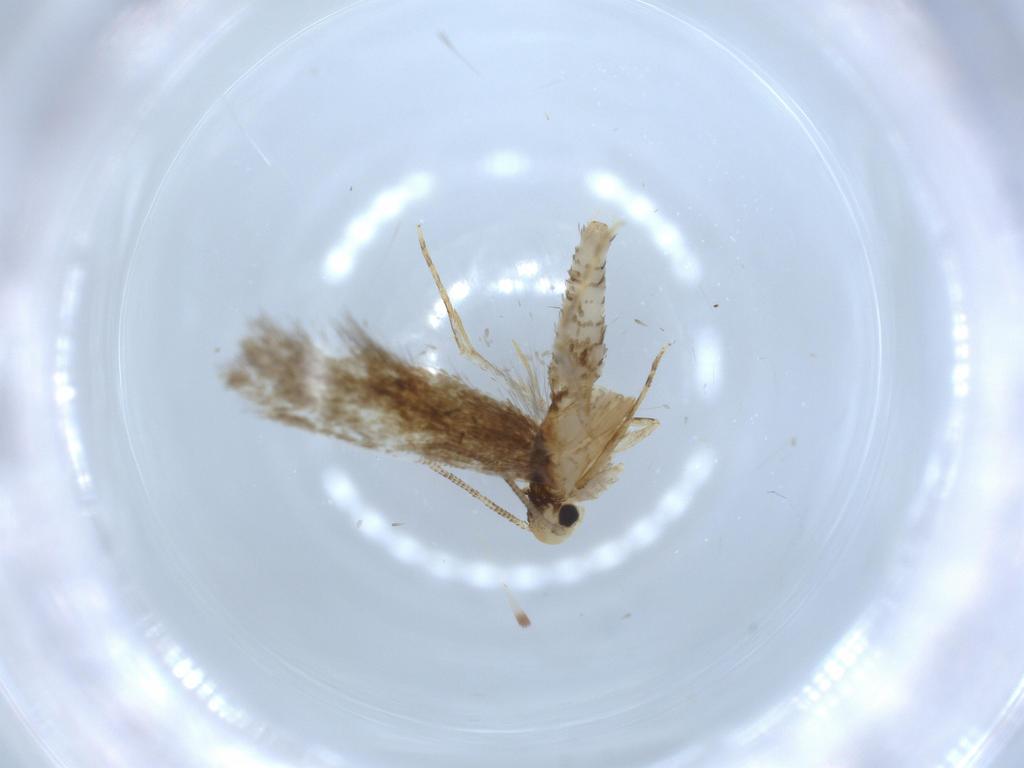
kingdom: Animalia
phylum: Arthropoda
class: Insecta
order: Lepidoptera
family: Tineidae
